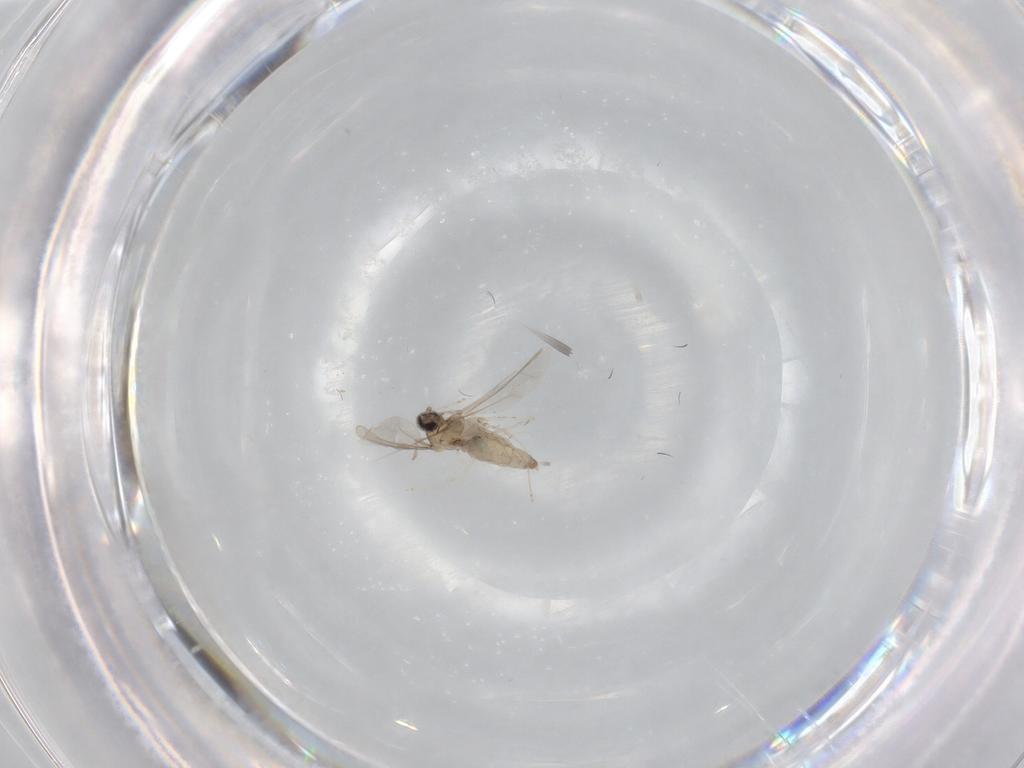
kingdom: Animalia
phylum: Arthropoda
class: Insecta
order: Diptera
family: Cecidomyiidae
